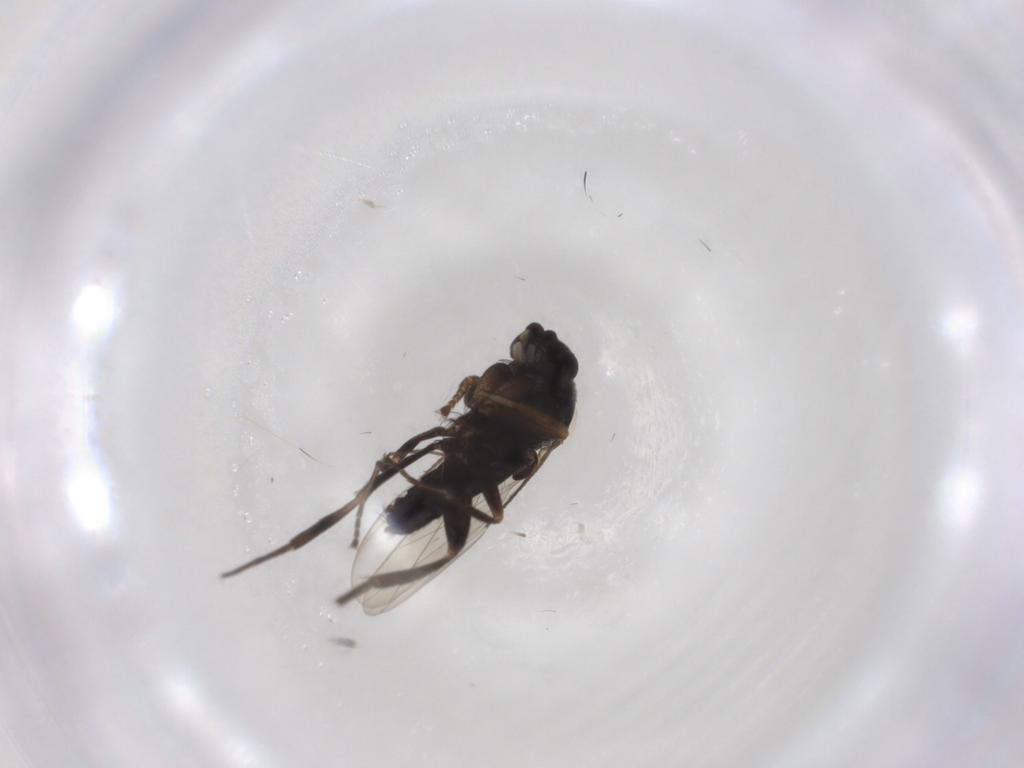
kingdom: Animalia
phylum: Arthropoda
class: Insecta
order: Diptera
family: Phoridae
